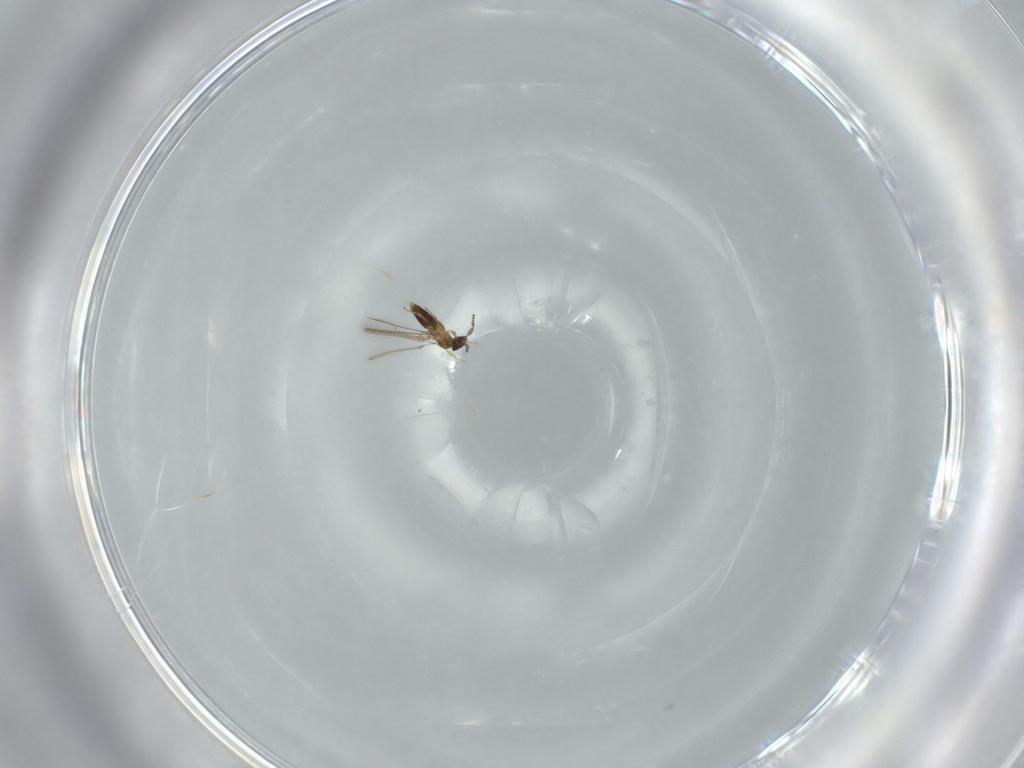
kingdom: Animalia
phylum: Arthropoda
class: Insecta
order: Hymenoptera
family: Mymaridae
